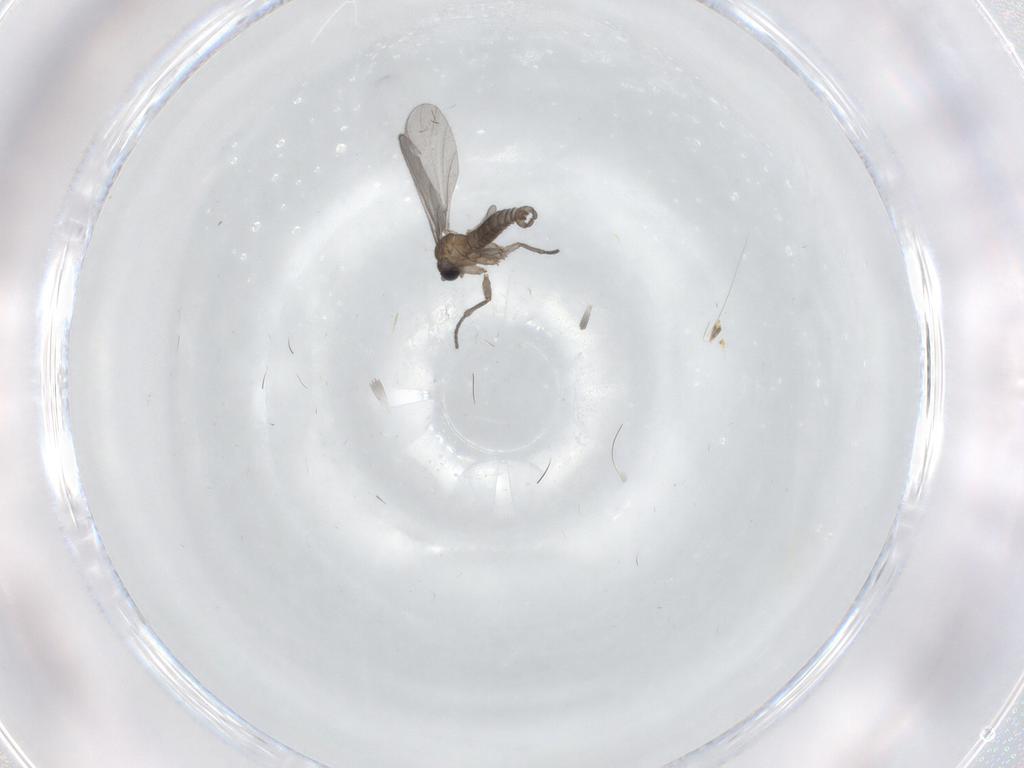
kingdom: Animalia
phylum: Arthropoda
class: Insecta
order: Diptera
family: Sciaridae
